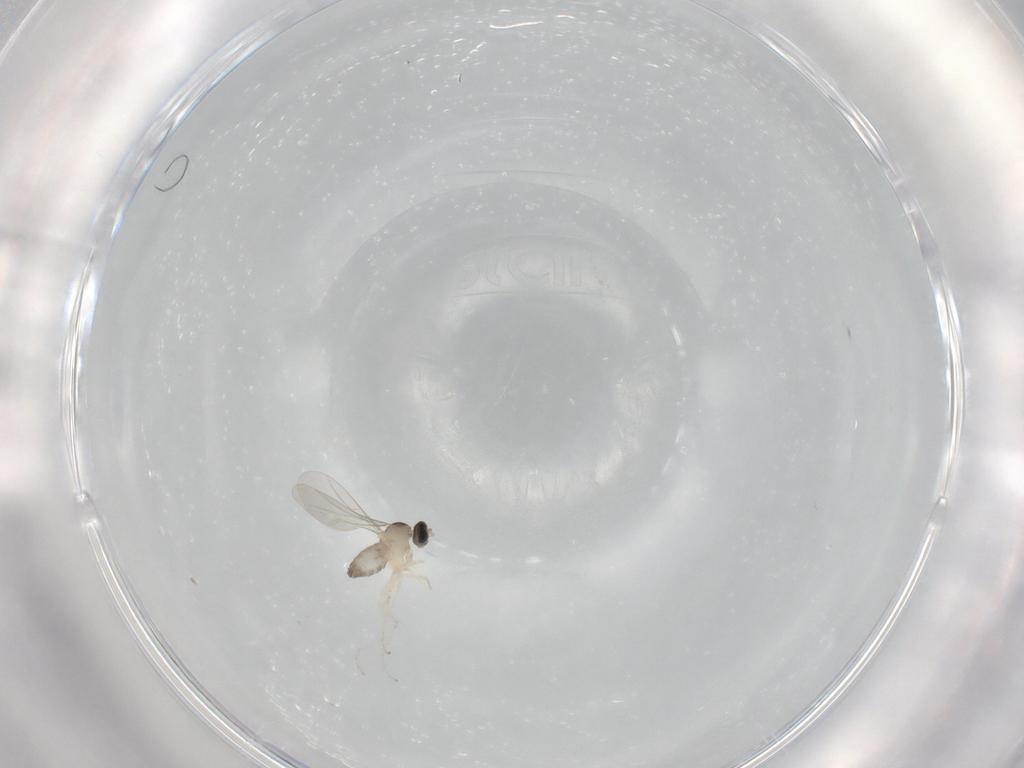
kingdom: Animalia
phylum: Arthropoda
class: Insecta
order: Diptera
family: Cecidomyiidae
